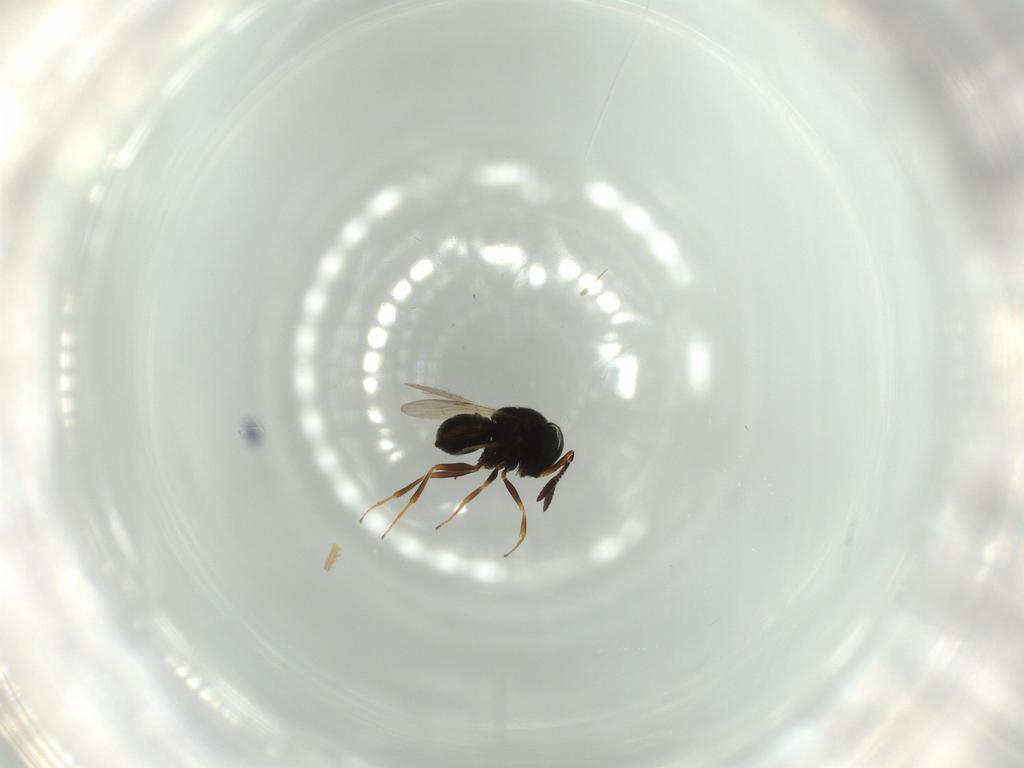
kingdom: Animalia
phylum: Arthropoda
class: Insecta
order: Hymenoptera
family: Scelionidae
